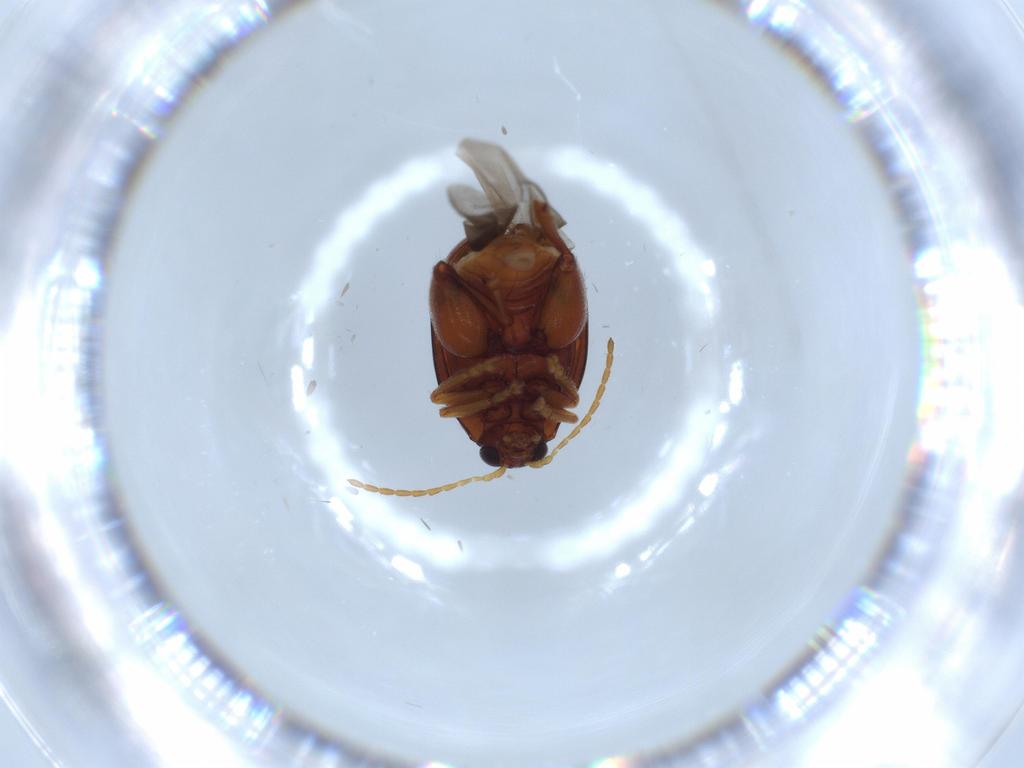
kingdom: Animalia
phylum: Arthropoda
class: Insecta
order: Coleoptera
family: Chrysomelidae
